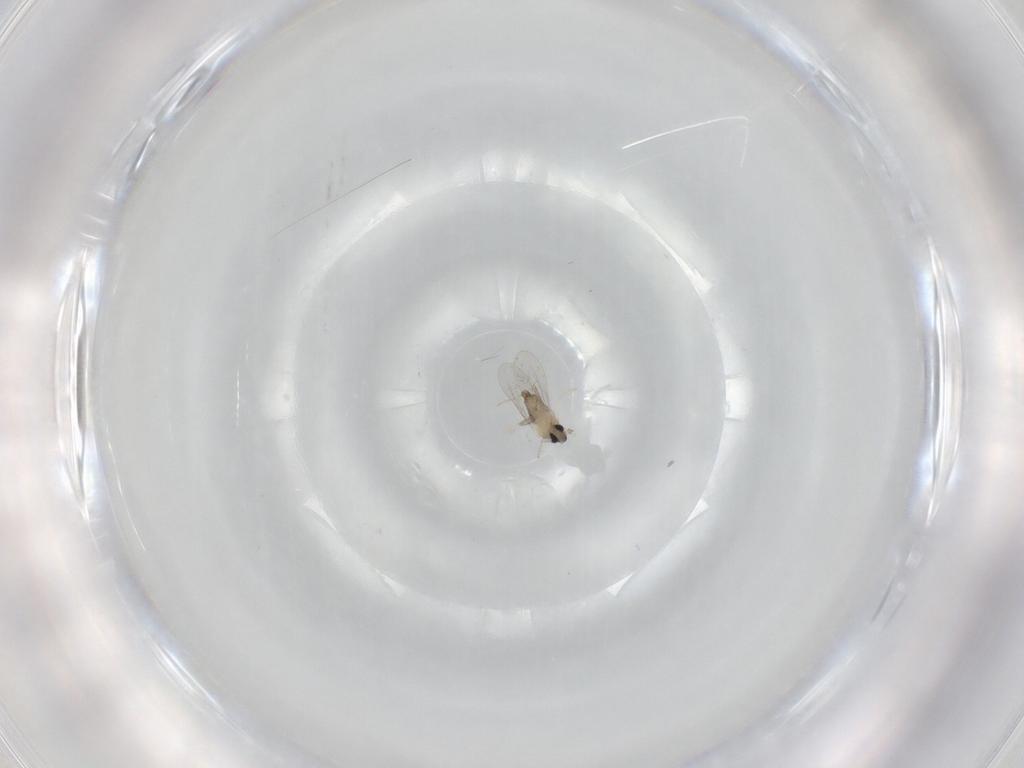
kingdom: Animalia
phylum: Arthropoda
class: Insecta
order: Diptera
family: Cecidomyiidae
